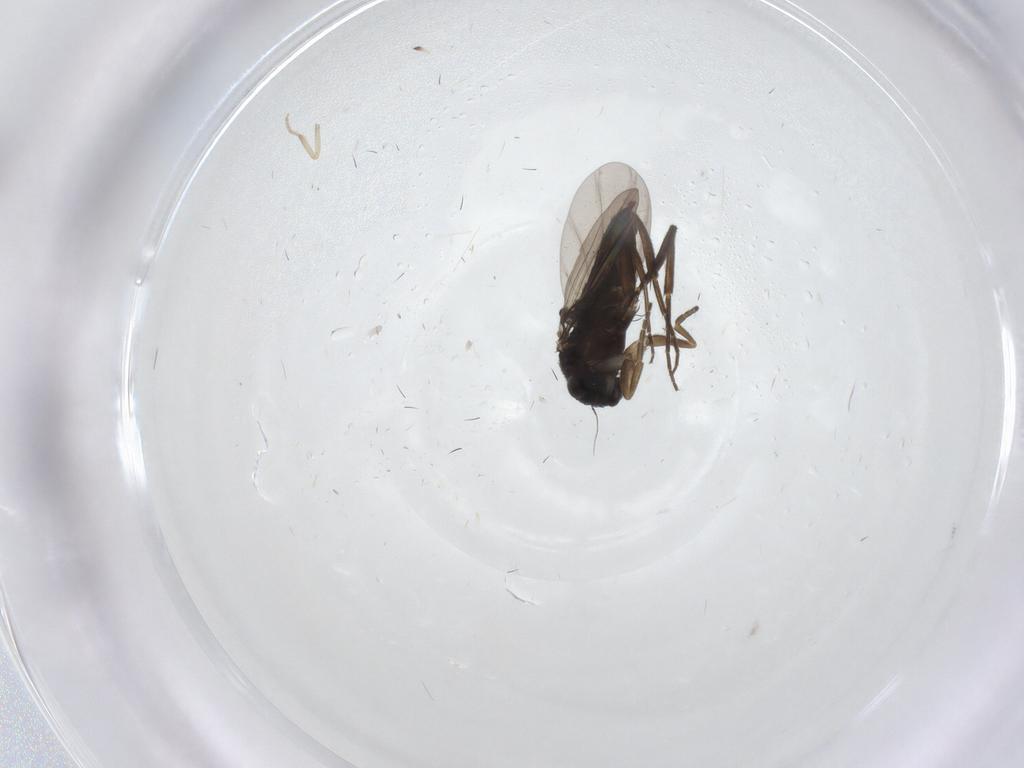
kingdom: Animalia
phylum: Arthropoda
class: Insecta
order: Diptera
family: Phoridae
